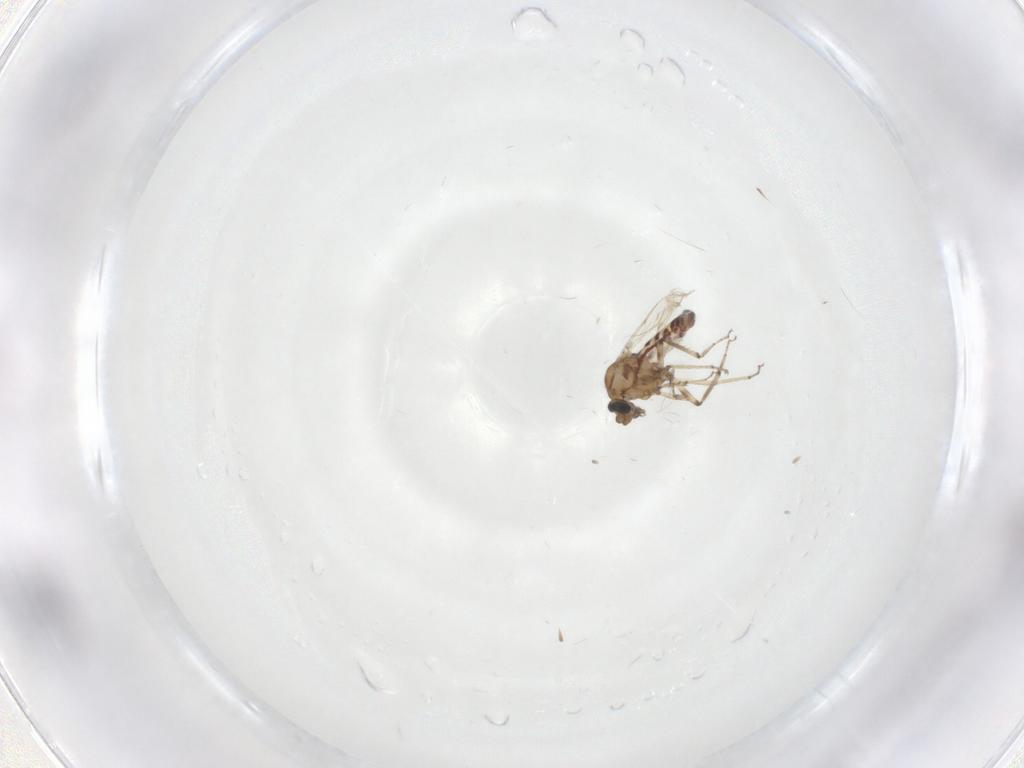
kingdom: Animalia
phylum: Arthropoda
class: Insecta
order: Diptera
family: Ceratopogonidae
